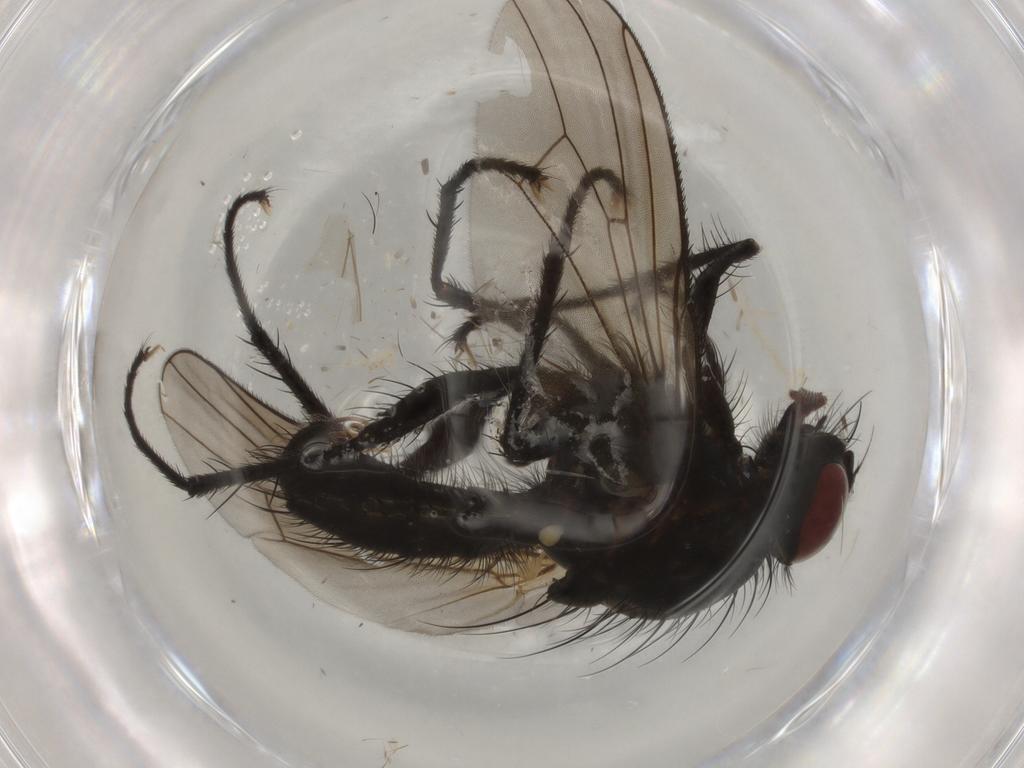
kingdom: Animalia
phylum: Arthropoda
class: Insecta
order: Diptera
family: Anthomyiidae
